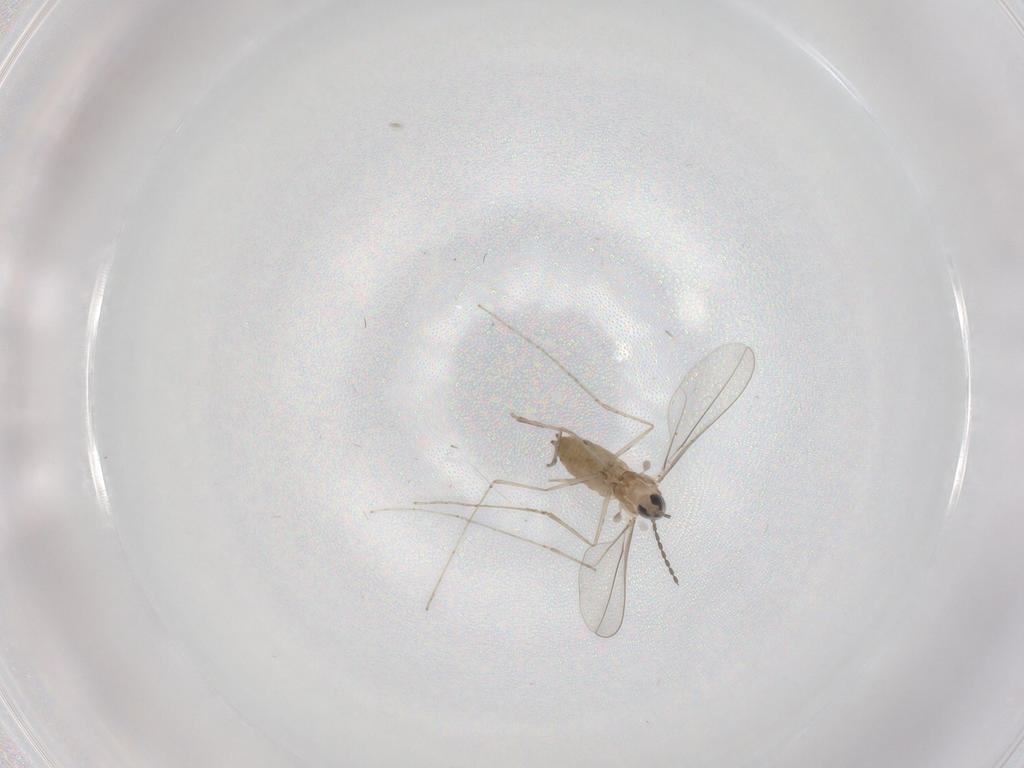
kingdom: Animalia
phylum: Arthropoda
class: Insecta
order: Diptera
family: Cecidomyiidae
